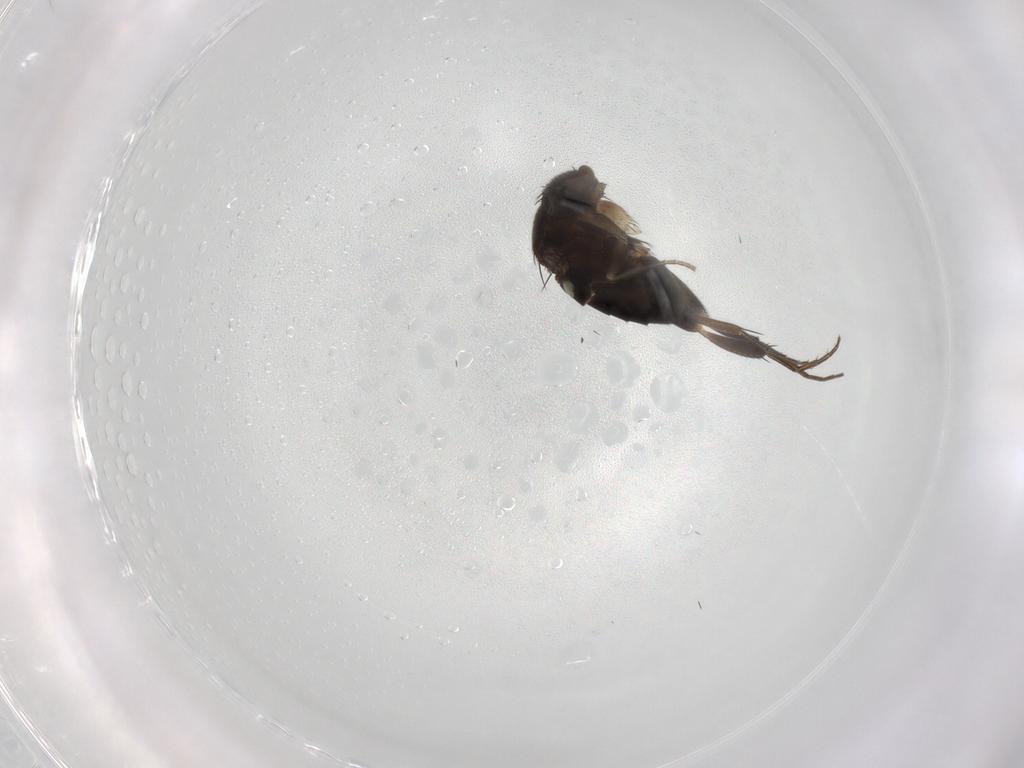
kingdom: Animalia
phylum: Arthropoda
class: Insecta
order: Diptera
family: Phoridae
